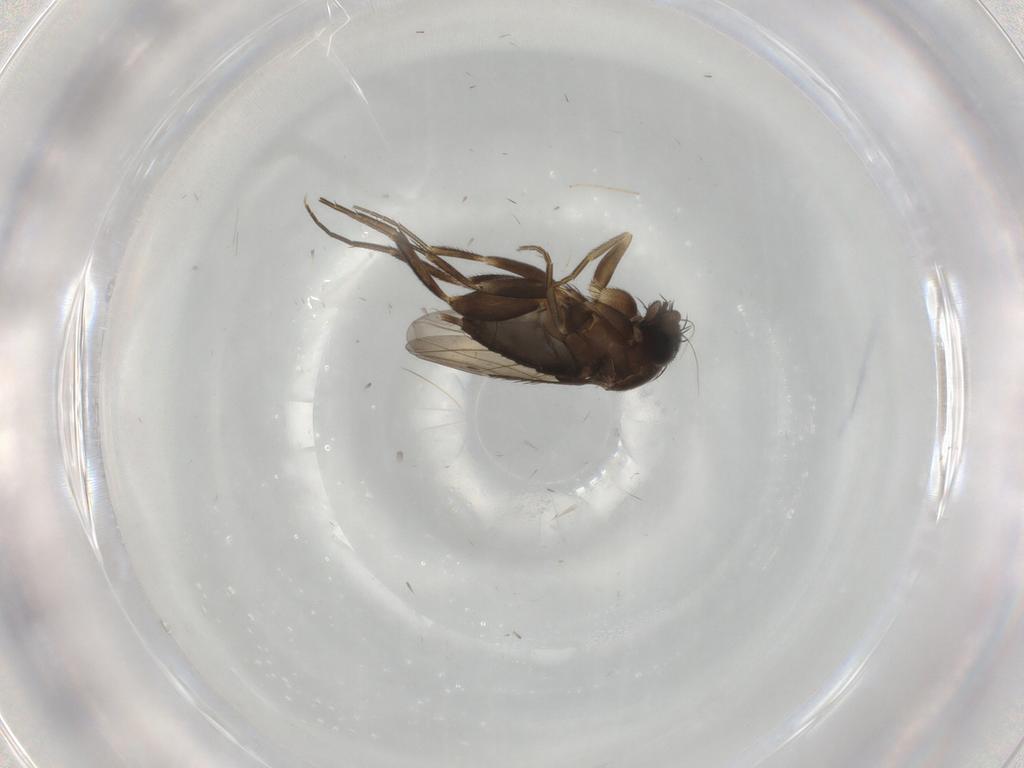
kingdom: Animalia
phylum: Arthropoda
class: Insecta
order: Diptera
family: Phoridae
